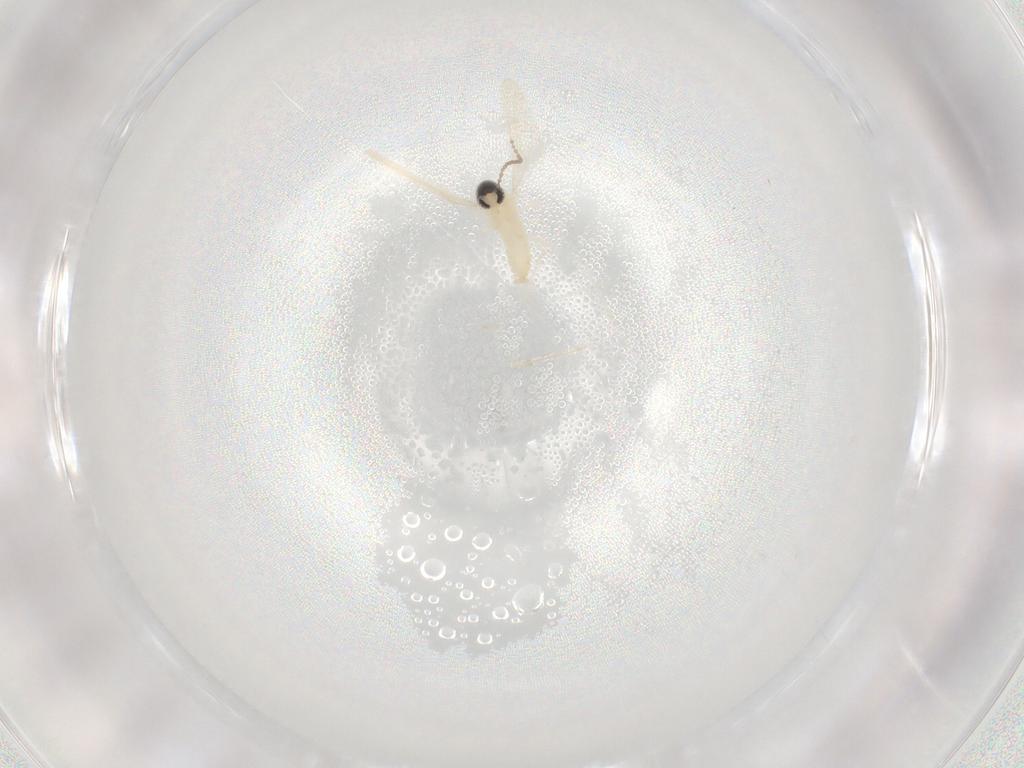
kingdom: Animalia
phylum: Arthropoda
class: Insecta
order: Diptera
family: Cecidomyiidae
